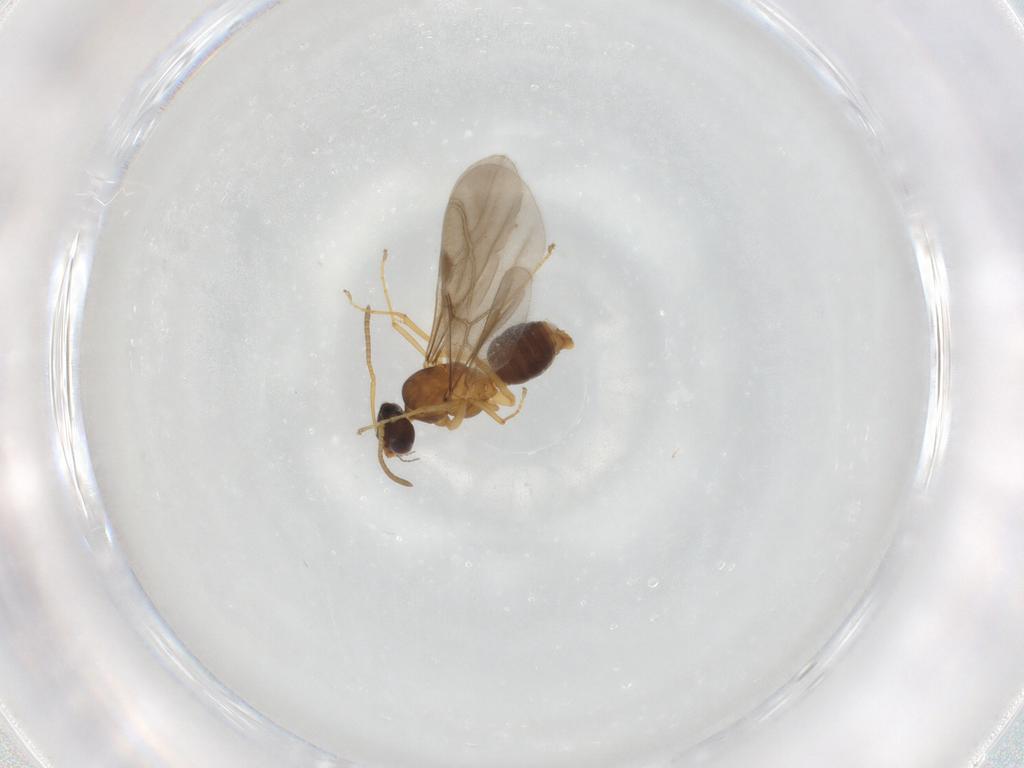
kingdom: Animalia
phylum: Arthropoda
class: Insecta
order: Hymenoptera
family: Formicidae
